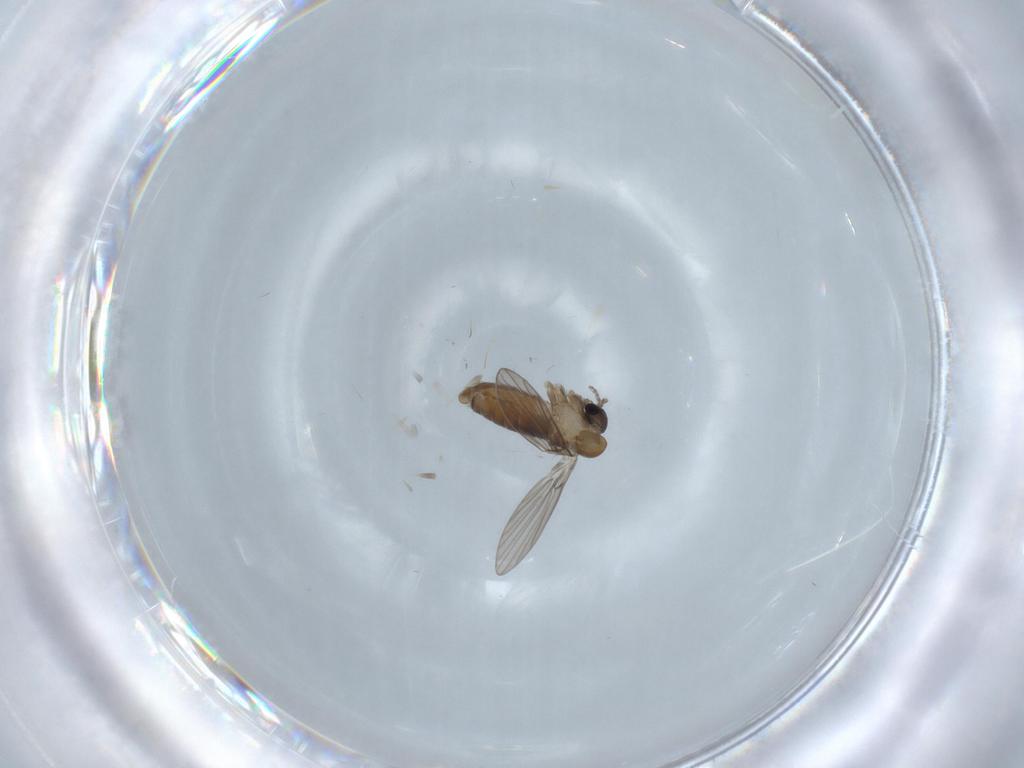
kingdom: Animalia
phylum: Arthropoda
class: Insecta
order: Diptera
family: Psychodidae
